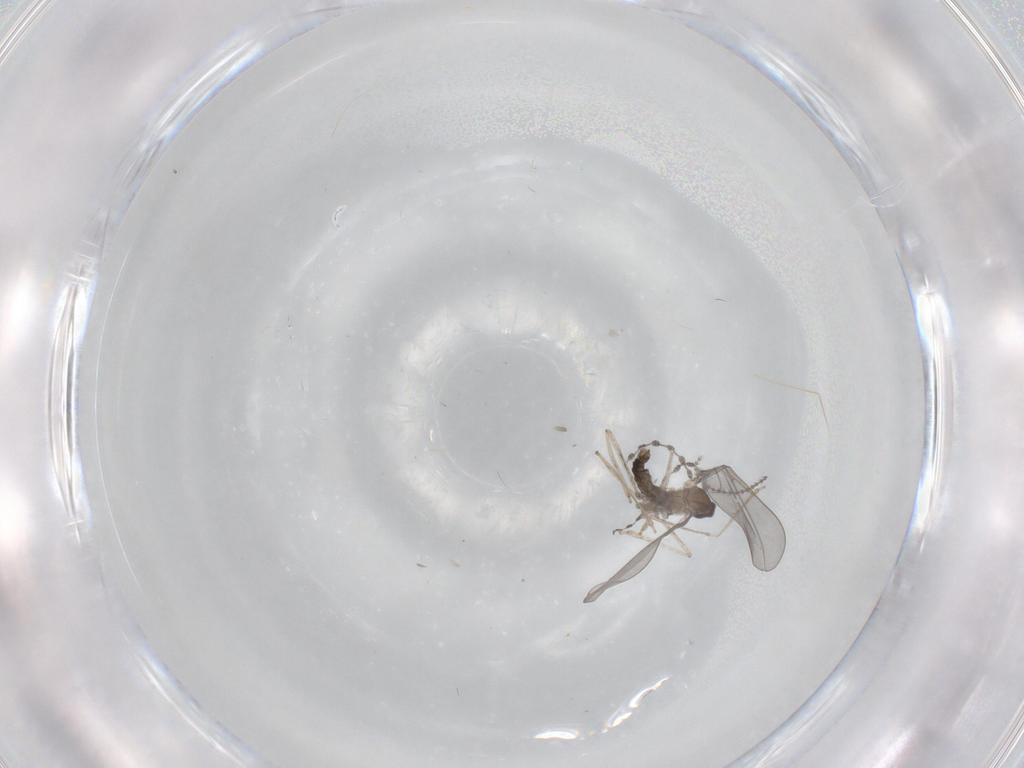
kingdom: Animalia
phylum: Arthropoda
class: Insecta
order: Diptera
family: Cecidomyiidae
